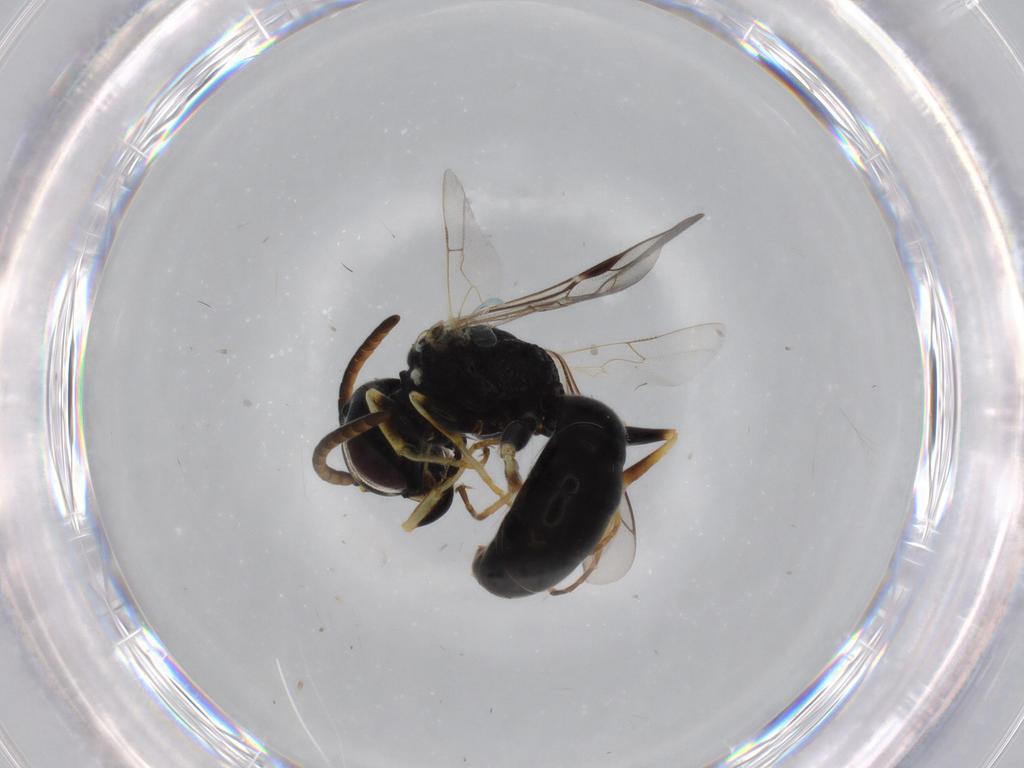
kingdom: Animalia
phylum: Arthropoda
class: Insecta
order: Hymenoptera
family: Crabronidae
